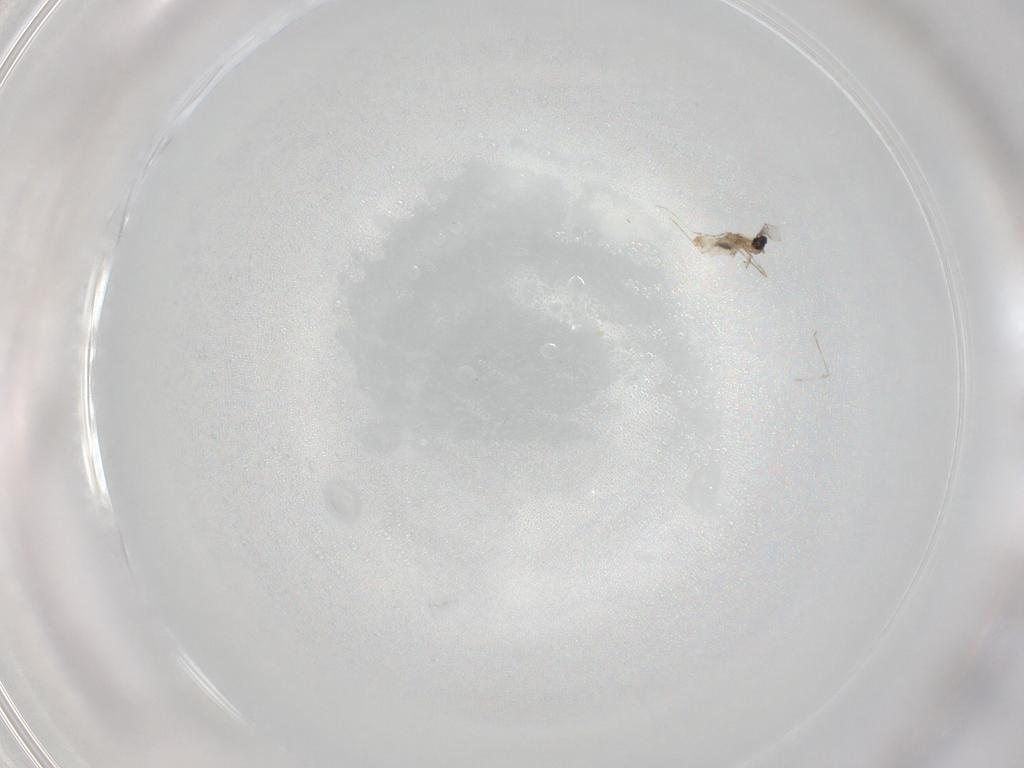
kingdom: Animalia
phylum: Arthropoda
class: Insecta
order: Diptera
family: Cecidomyiidae
